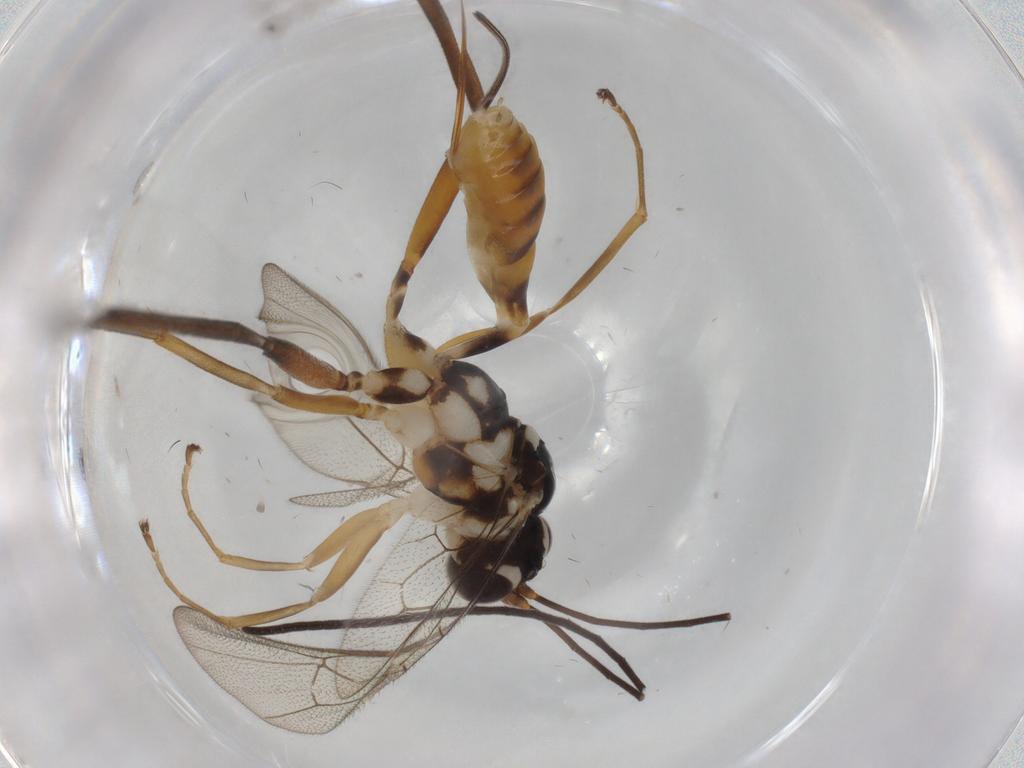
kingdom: Animalia
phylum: Arthropoda
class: Insecta
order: Hymenoptera
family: Ichneumonidae
